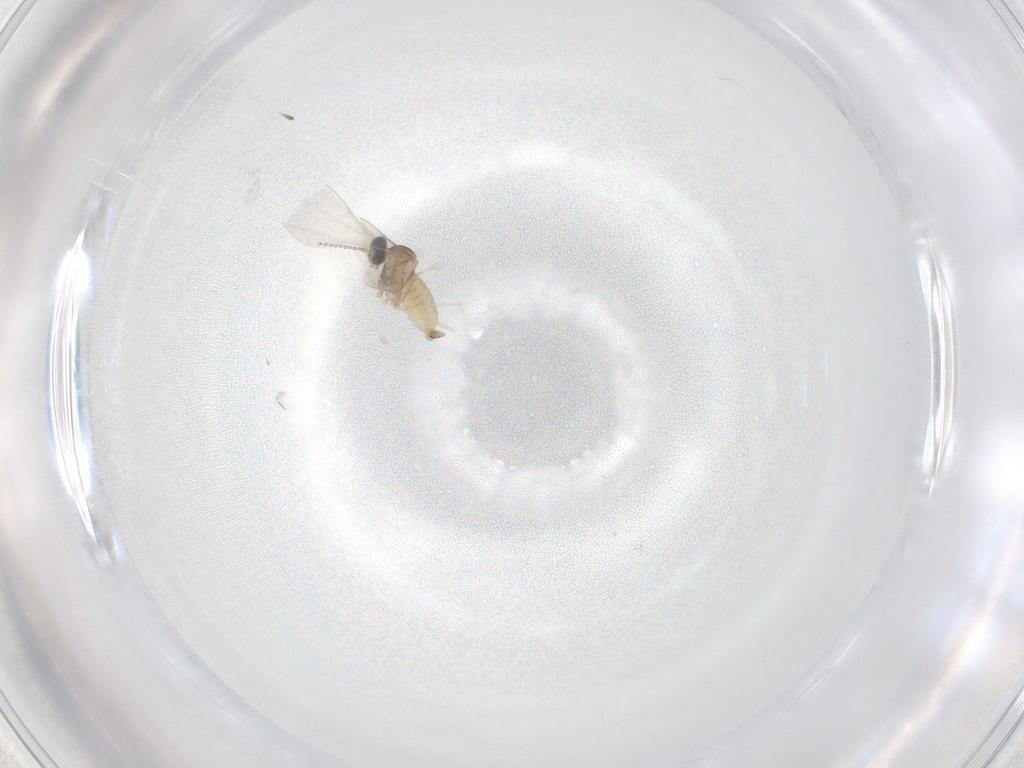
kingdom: Animalia
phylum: Arthropoda
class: Insecta
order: Diptera
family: Cecidomyiidae
